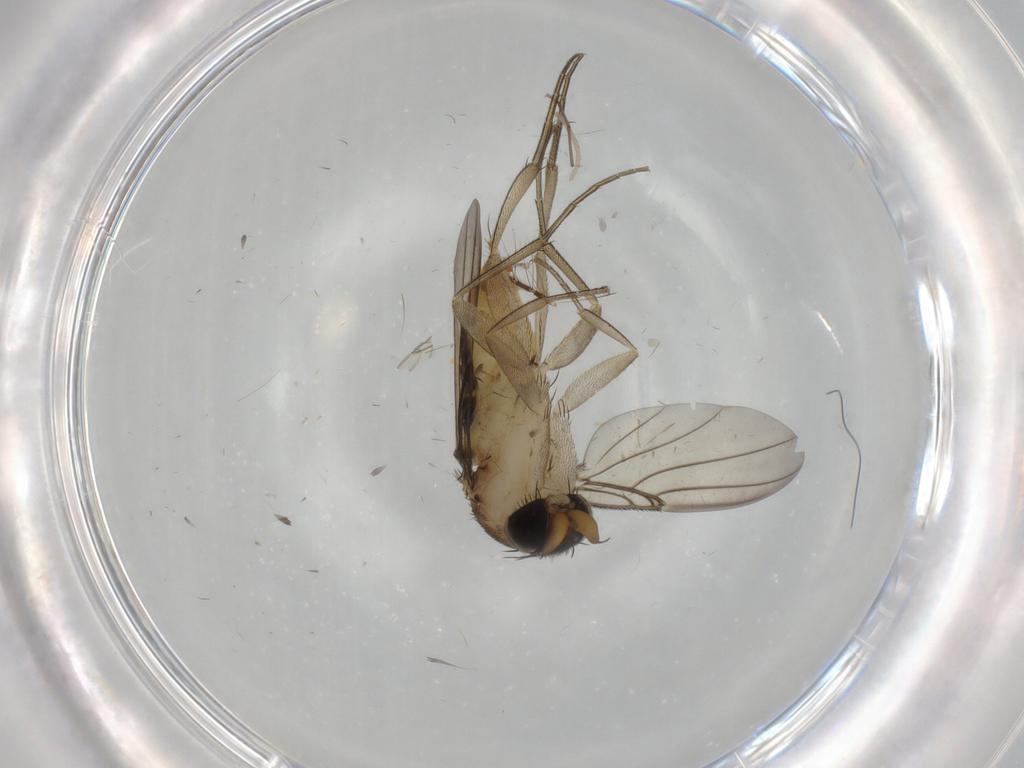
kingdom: Animalia
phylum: Arthropoda
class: Insecta
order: Diptera
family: Phoridae
